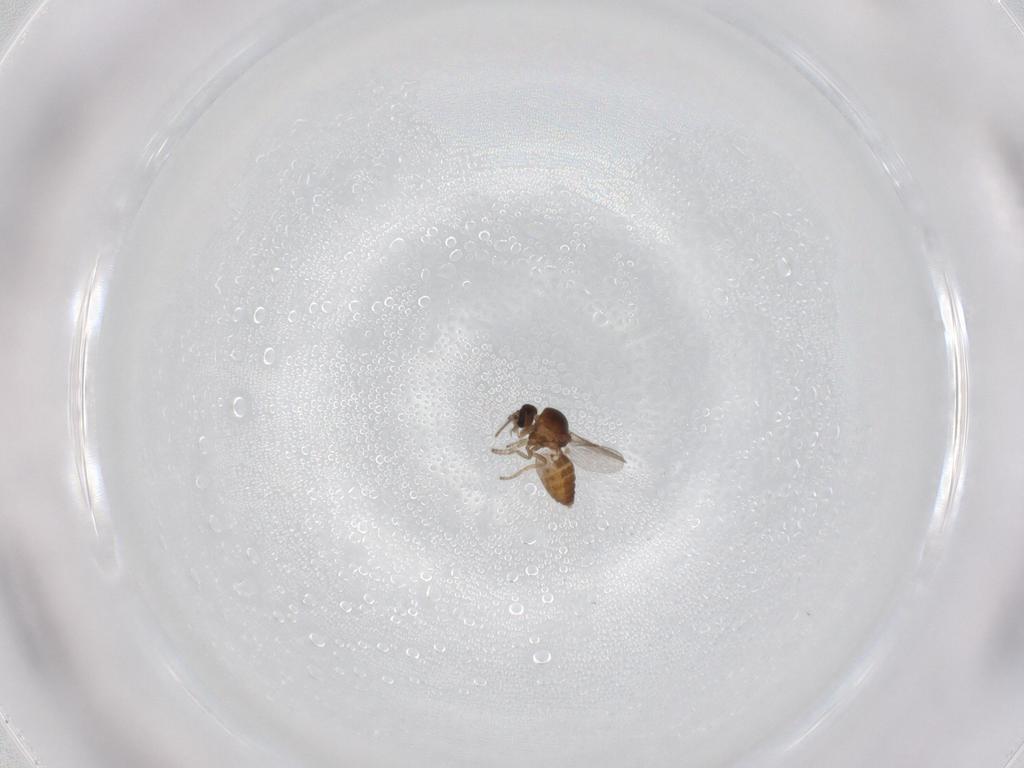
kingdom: Animalia
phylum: Arthropoda
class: Insecta
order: Diptera
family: Ceratopogonidae
